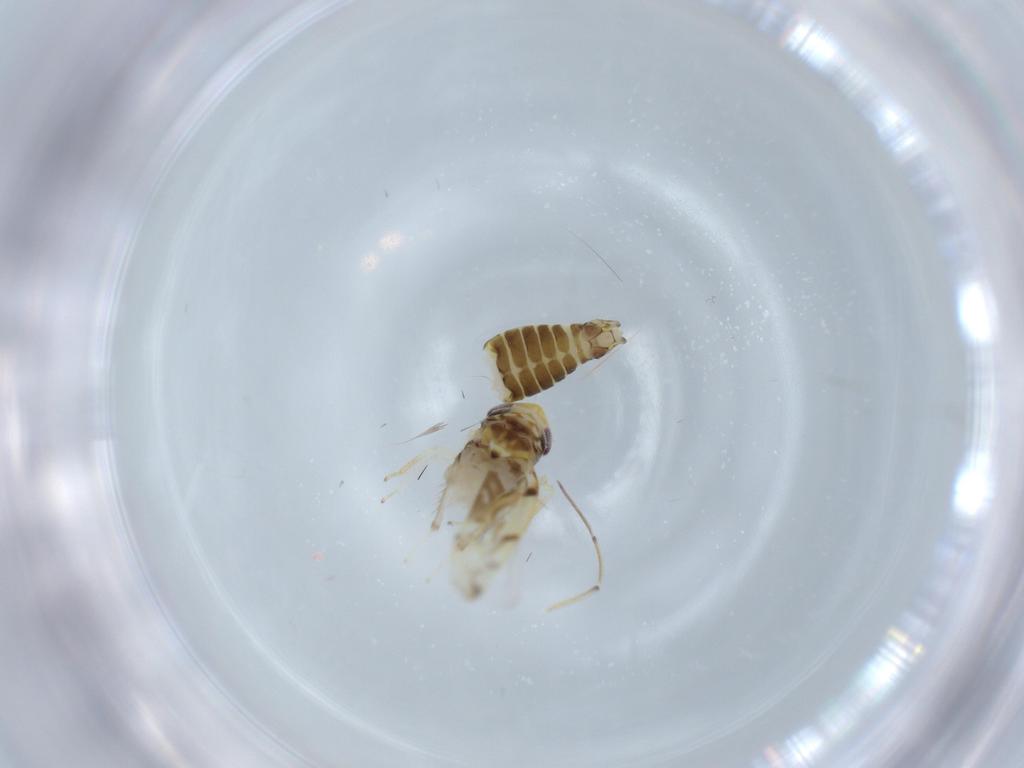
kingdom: Animalia
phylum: Arthropoda
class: Insecta
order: Hemiptera
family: Cicadellidae
